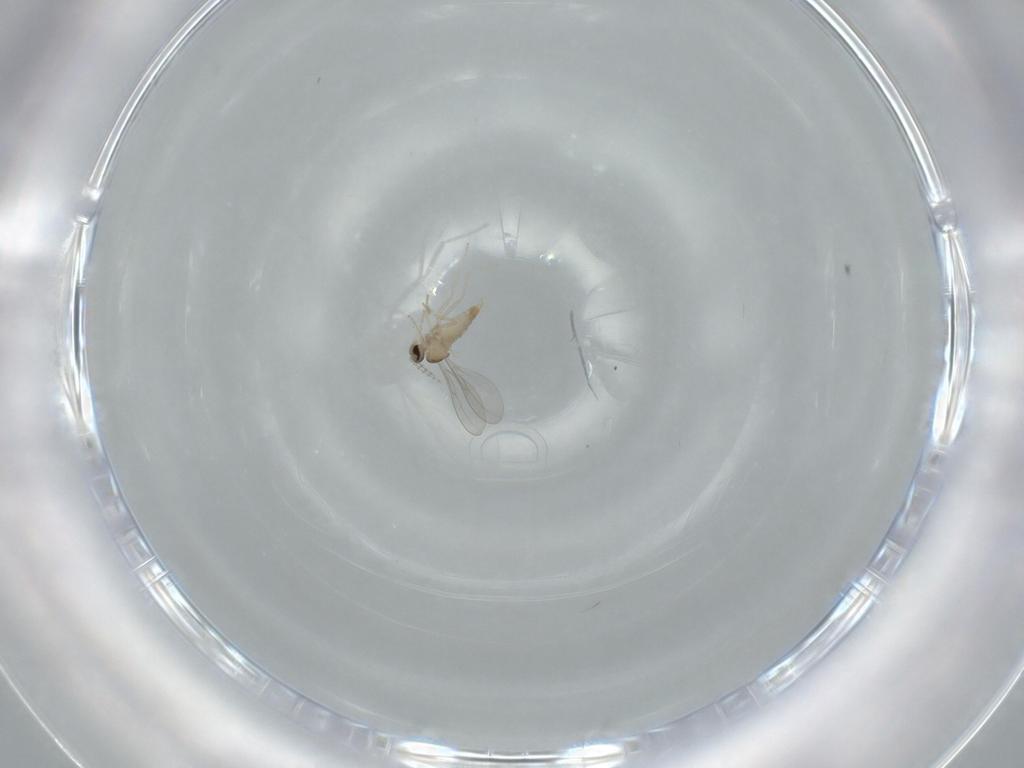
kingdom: Animalia
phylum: Arthropoda
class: Insecta
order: Diptera
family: Cecidomyiidae
